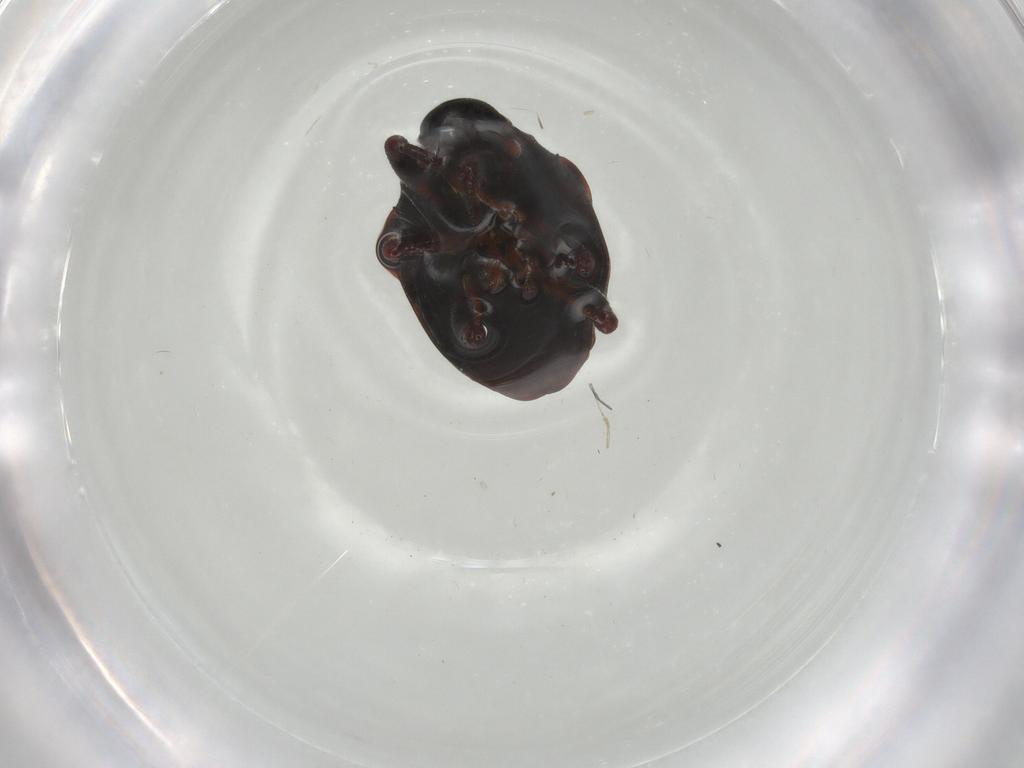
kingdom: Animalia
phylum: Arthropoda
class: Insecta
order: Coleoptera
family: Curculionidae
